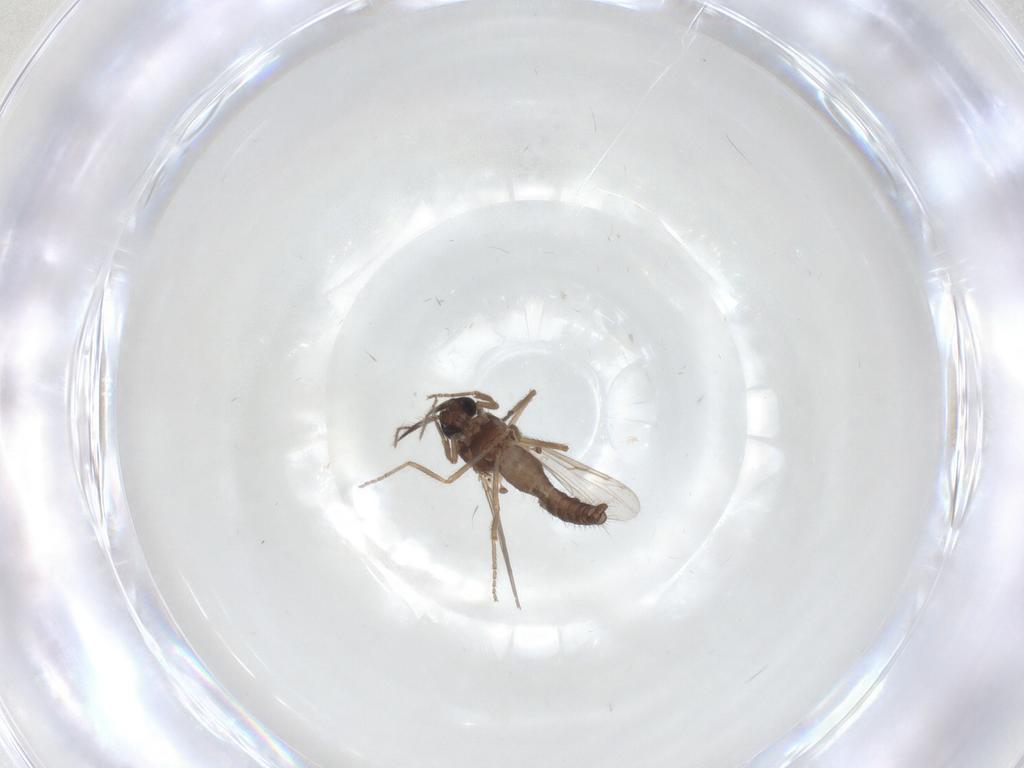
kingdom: Animalia
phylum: Arthropoda
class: Insecta
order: Diptera
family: Ceratopogonidae
